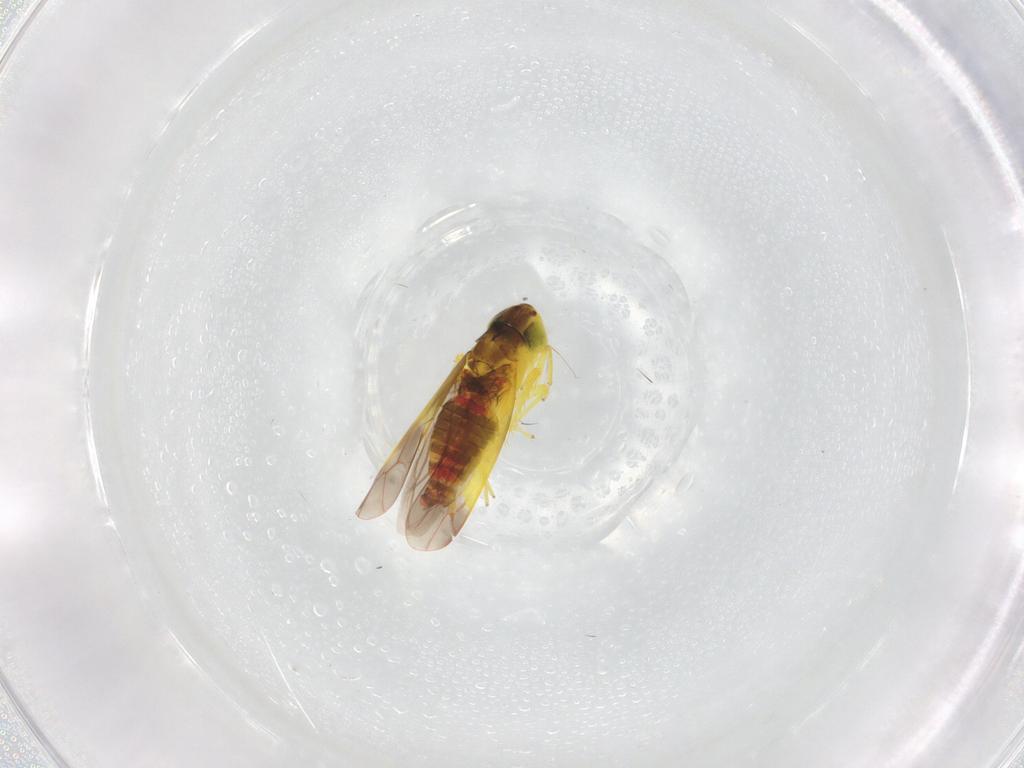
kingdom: Animalia
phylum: Arthropoda
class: Insecta
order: Hemiptera
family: Cicadellidae
